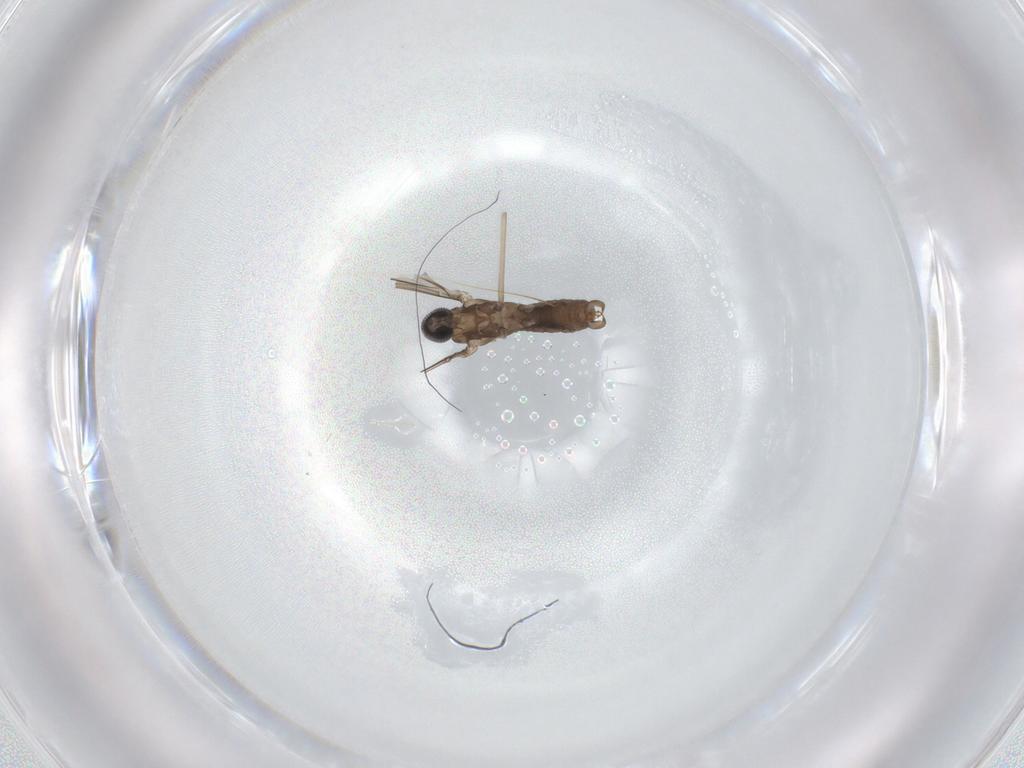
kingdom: Animalia
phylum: Arthropoda
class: Insecta
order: Diptera
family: Cecidomyiidae
